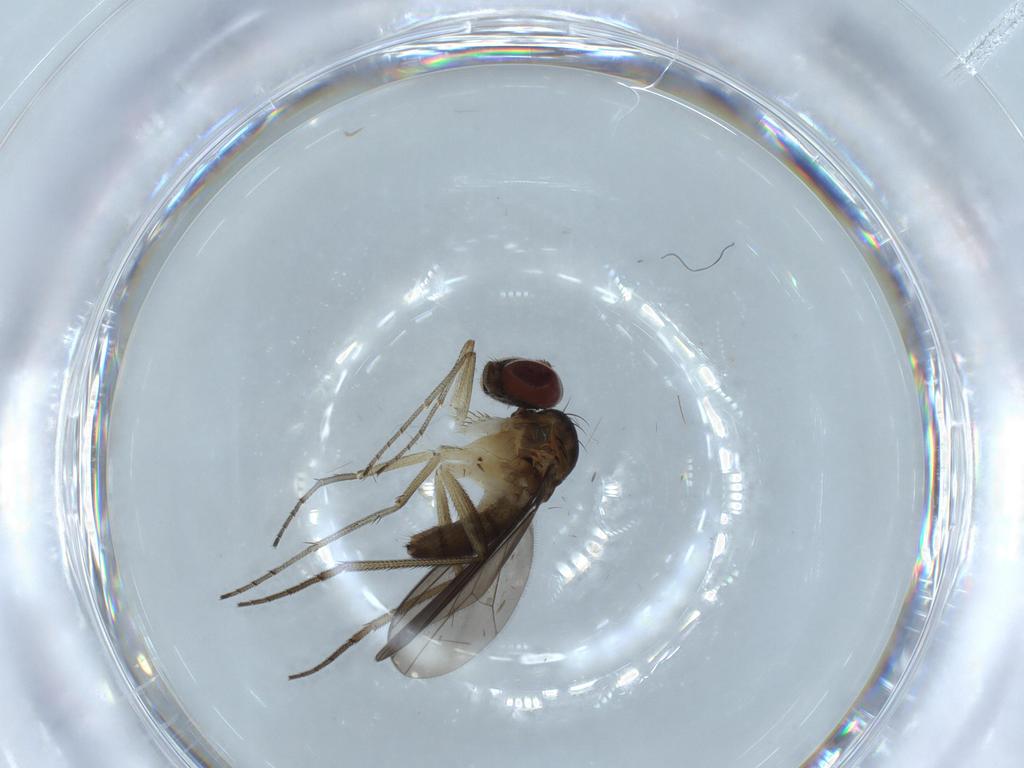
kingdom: Animalia
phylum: Arthropoda
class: Insecta
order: Diptera
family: Dolichopodidae
